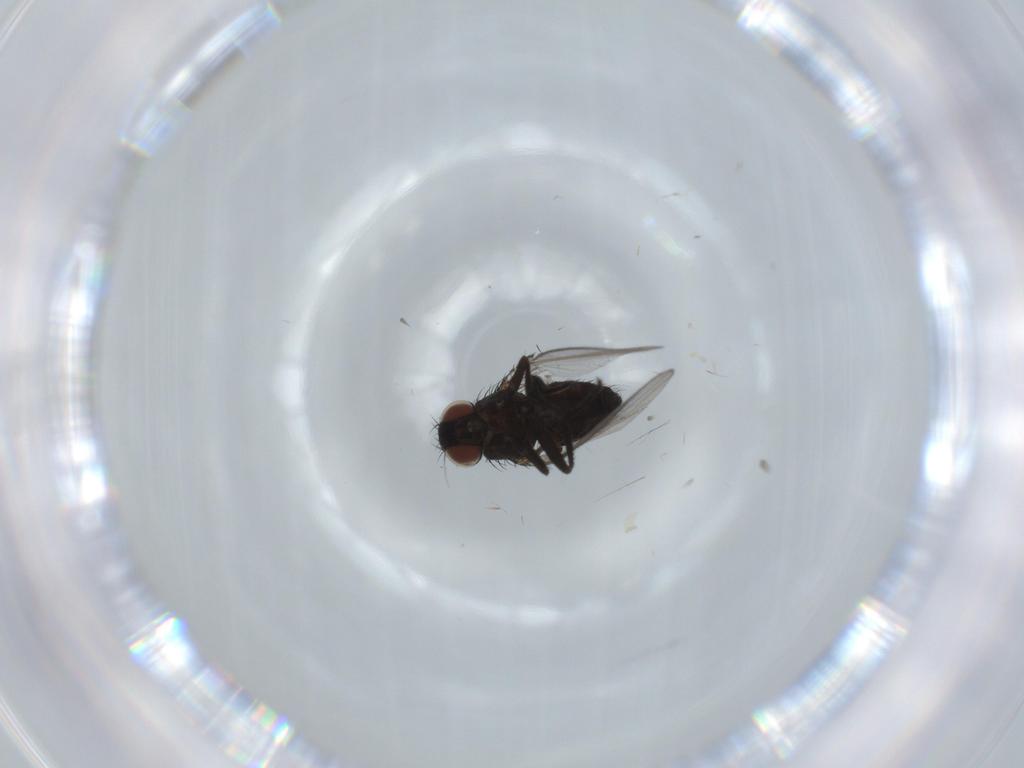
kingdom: Animalia
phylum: Arthropoda
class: Insecta
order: Diptera
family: Milichiidae
